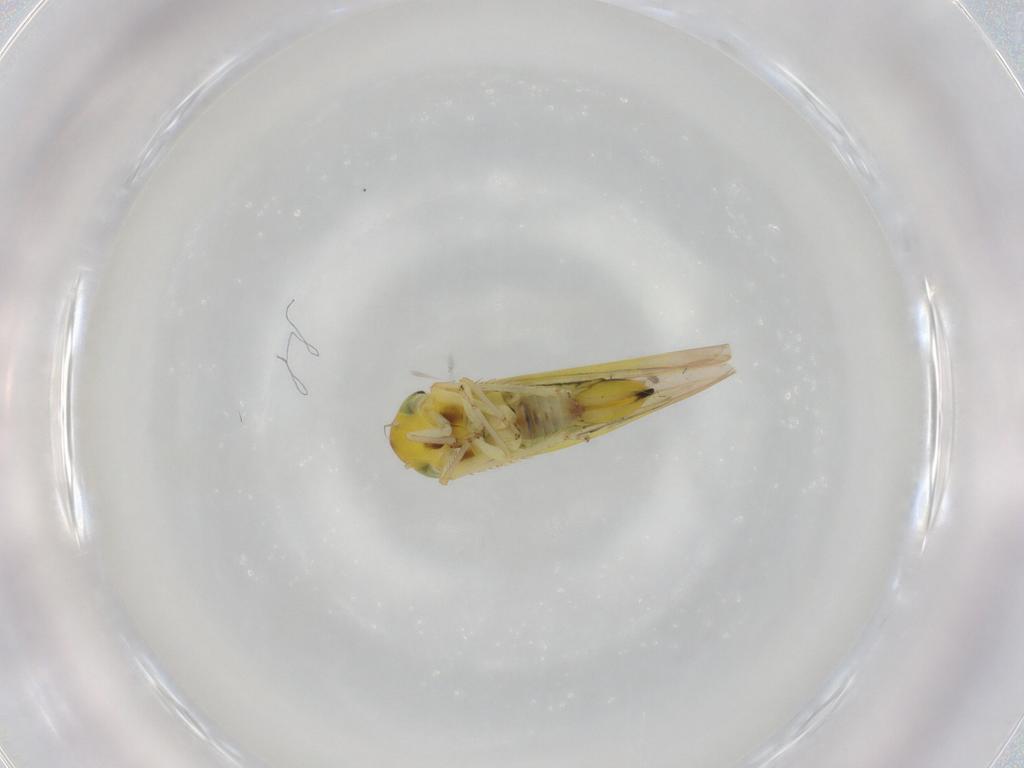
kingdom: Animalia
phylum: Arthropoda
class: Insecta
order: Hemiptera
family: Cicadellidae
